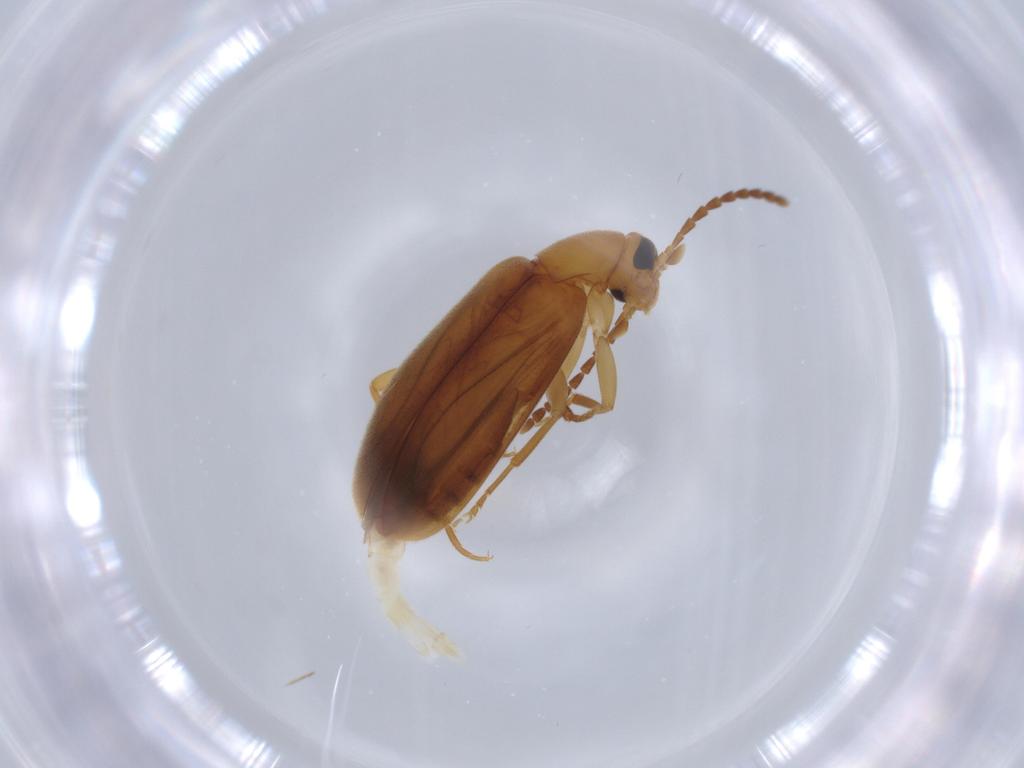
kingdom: Animalia
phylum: Arthropoda
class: Insecta
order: Coleoptera
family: Scraptiidae
